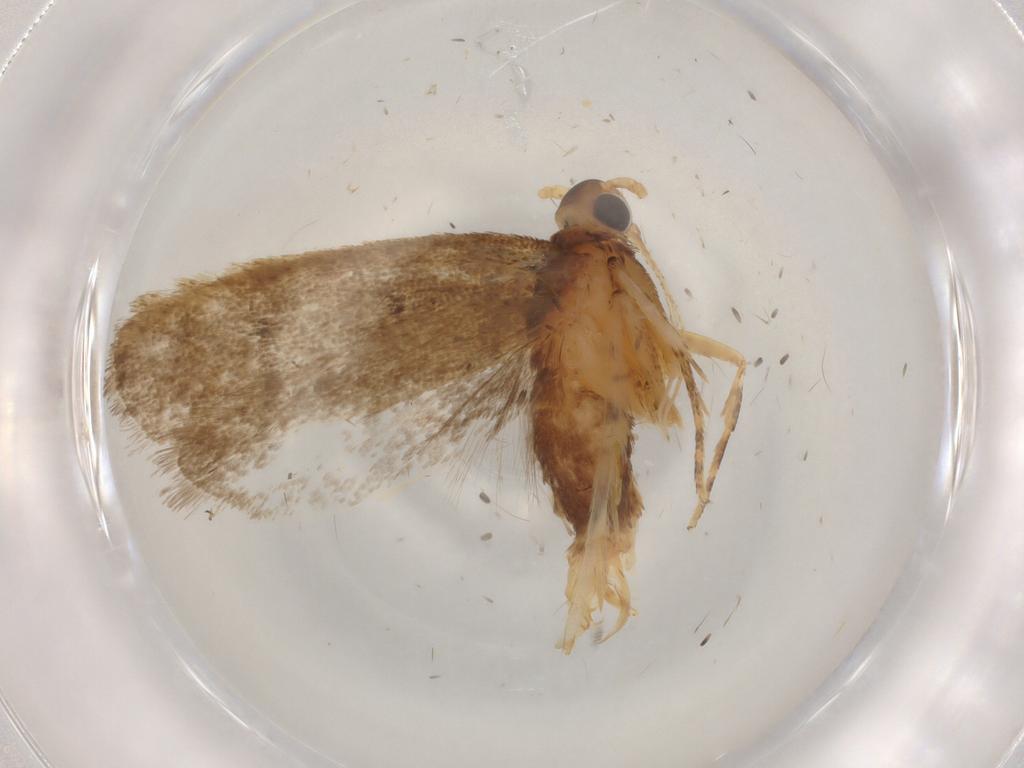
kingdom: Animalia
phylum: Arthropoda
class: Insecta
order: Lepidoptera
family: Lecithoceridae
